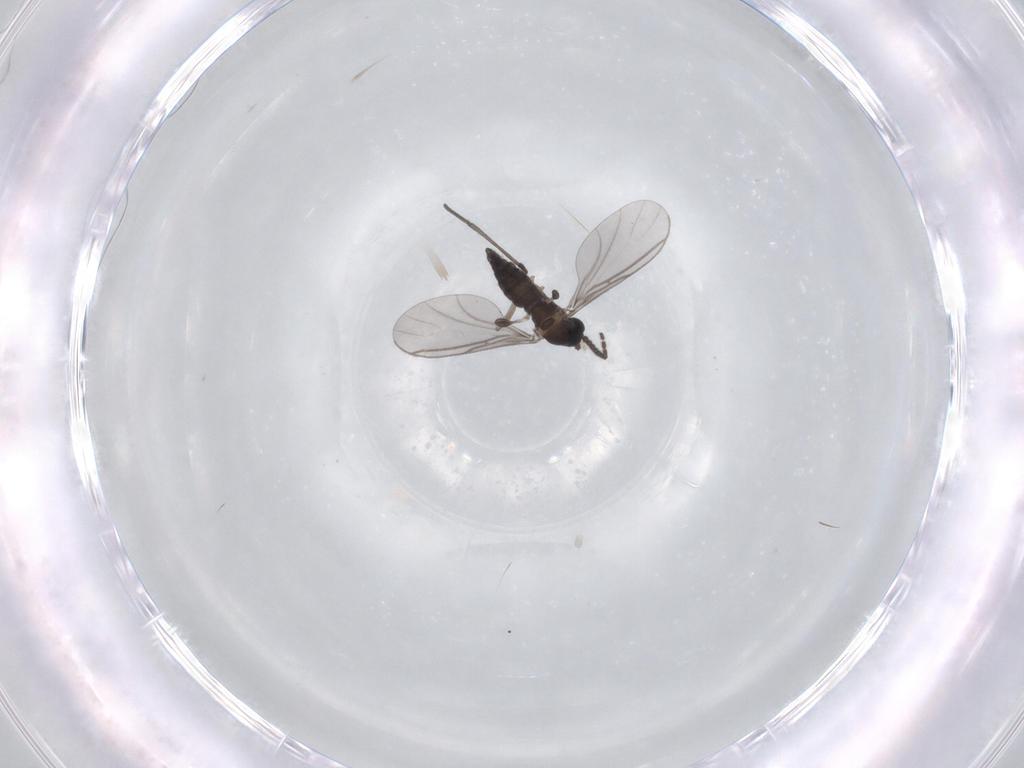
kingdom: Animalia
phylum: Arthropoda
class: Insecta
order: Diptera
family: Sciaridae
